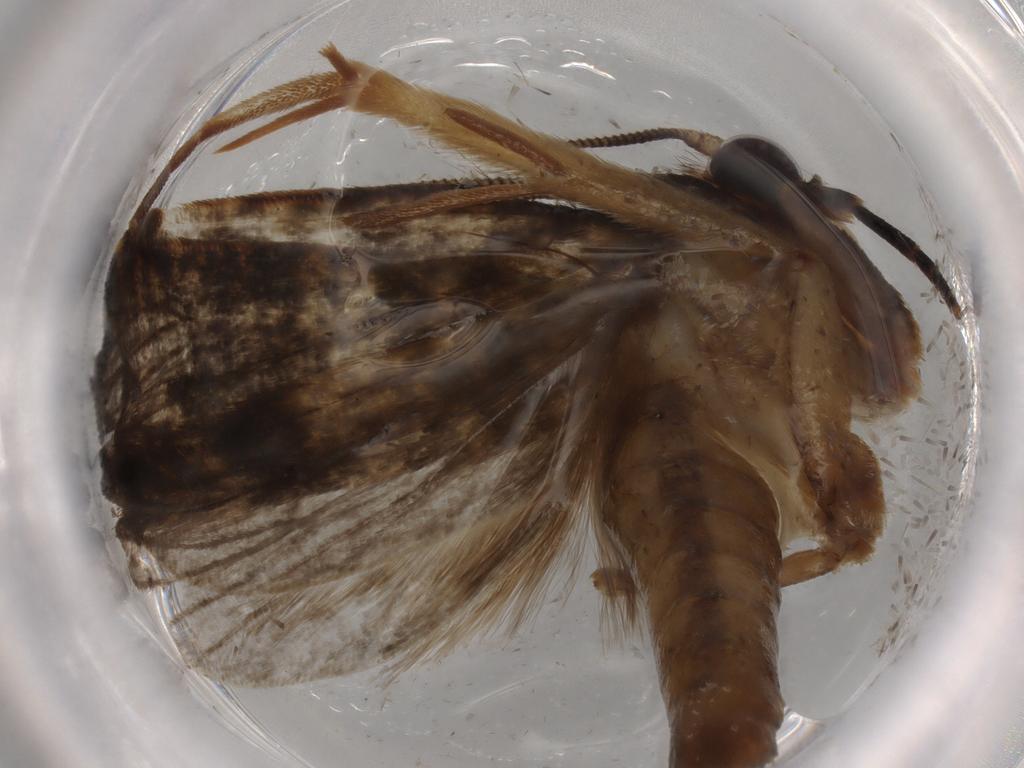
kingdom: Animalia
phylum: Arthropoda
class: Insecta
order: Lepidoptera
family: Tineidae
